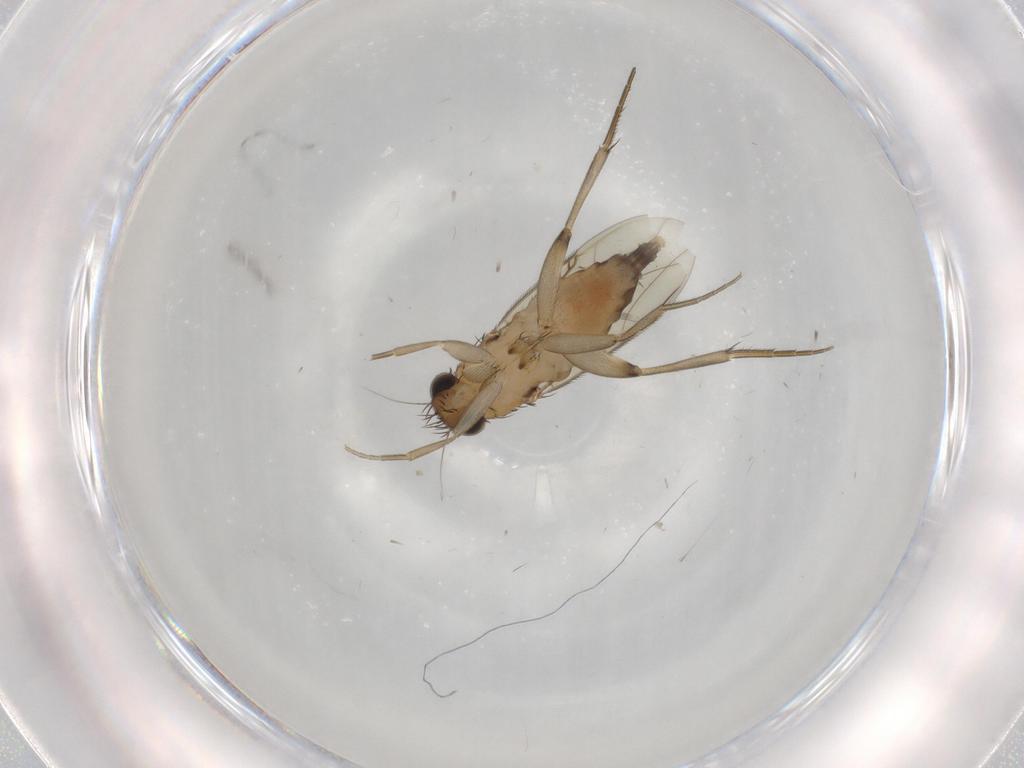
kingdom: Animalia
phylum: Arthropoda
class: Insecta
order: Diptera
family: Phoridae
